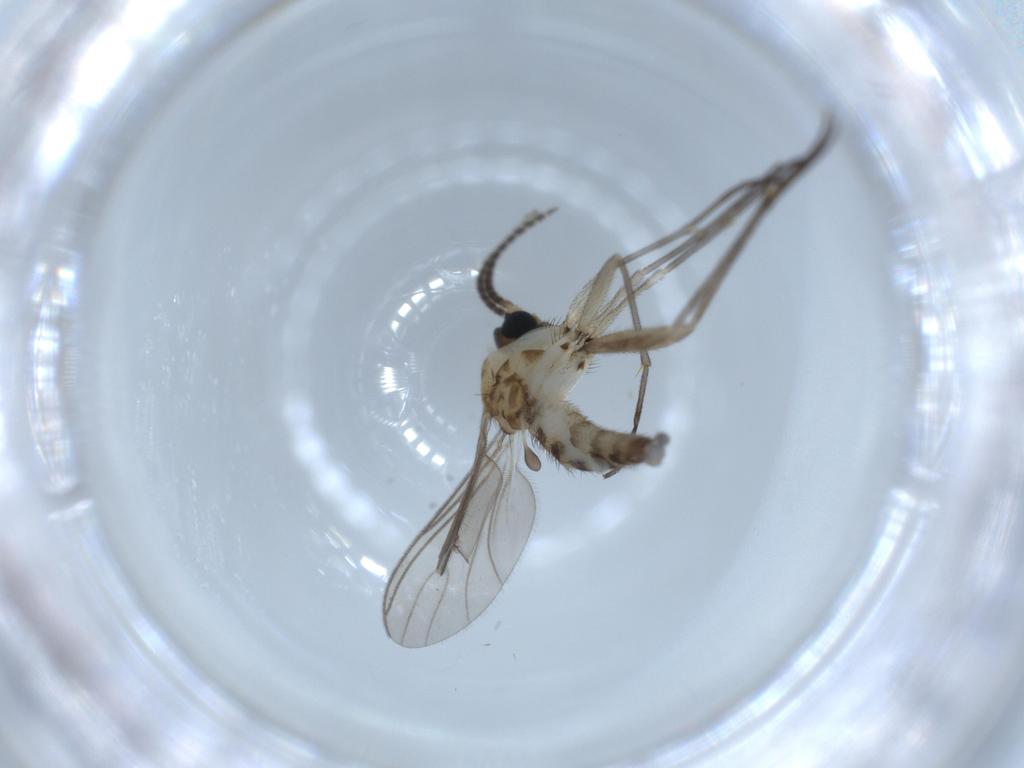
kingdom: Animalia
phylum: Arthropoda
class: Insecta
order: Diptera
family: Sciaridae
